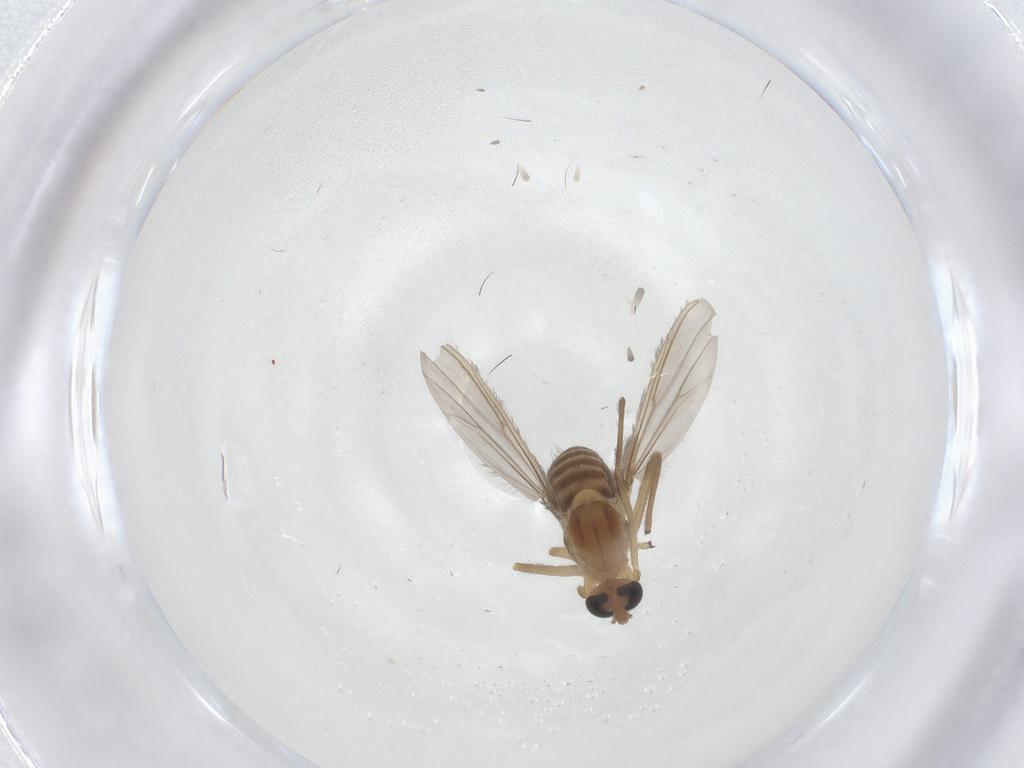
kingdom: Animalia
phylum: Arthropoda
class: Insecta
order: Diptera
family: Chironomidae
